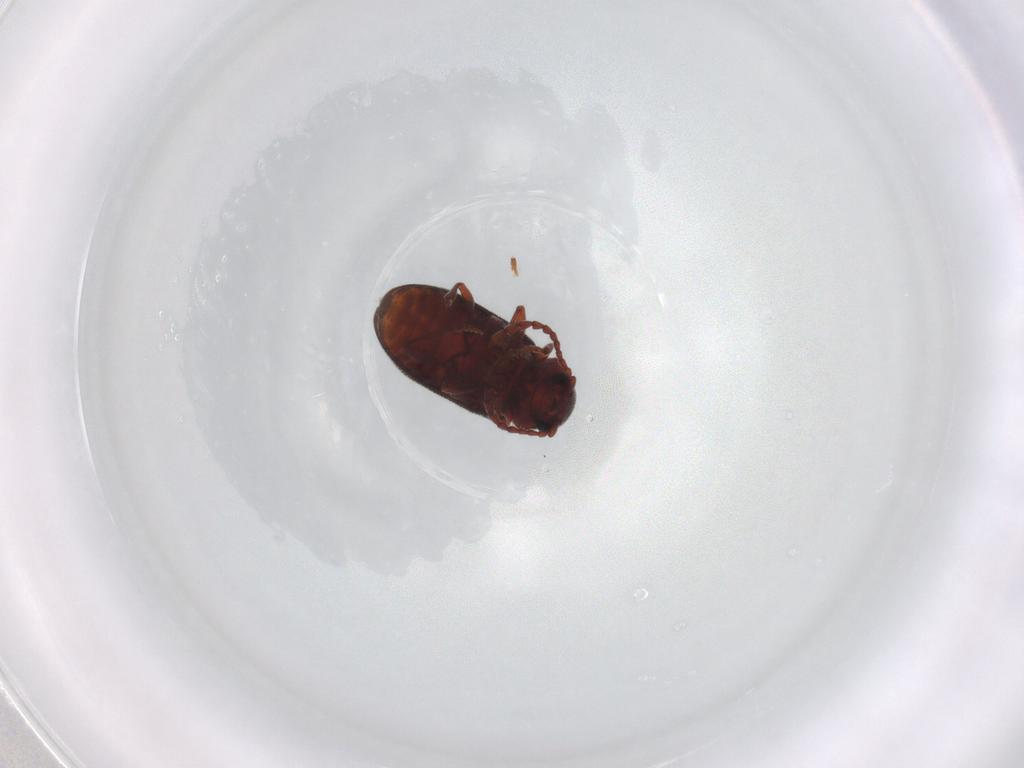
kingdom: Animalia
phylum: Arthropoda
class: Insecta
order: Coleoptera
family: Ptinidae
